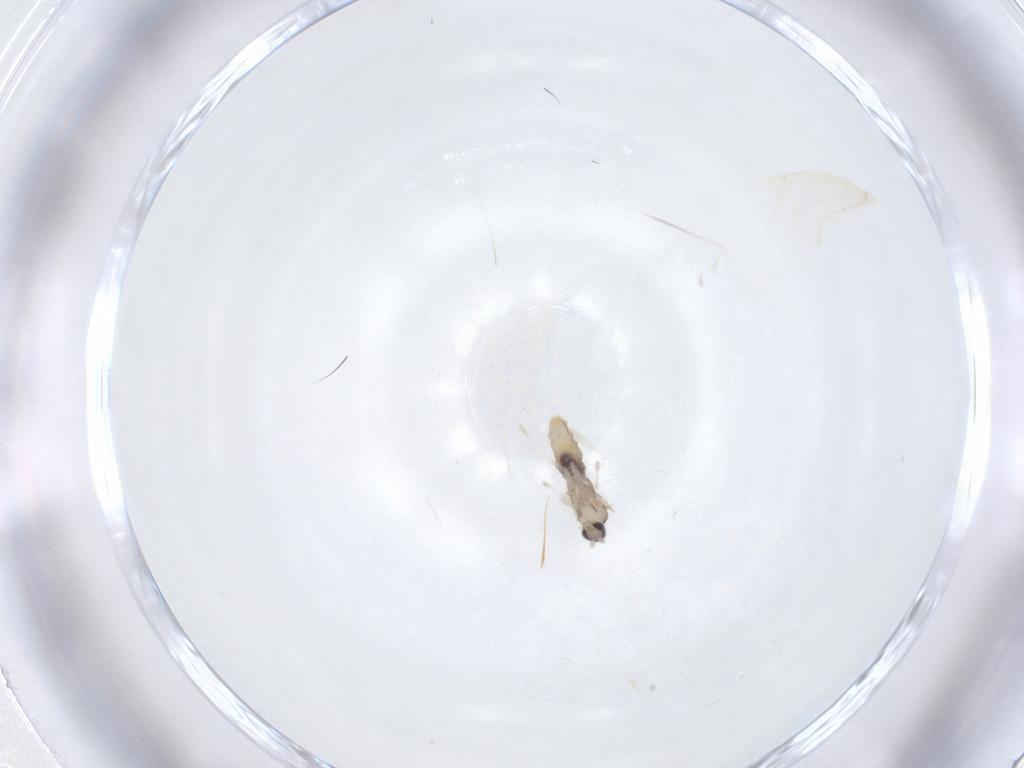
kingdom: Animalia
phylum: Arthropoda
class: Insecta
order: Diptera
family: Cecidomyiidae
